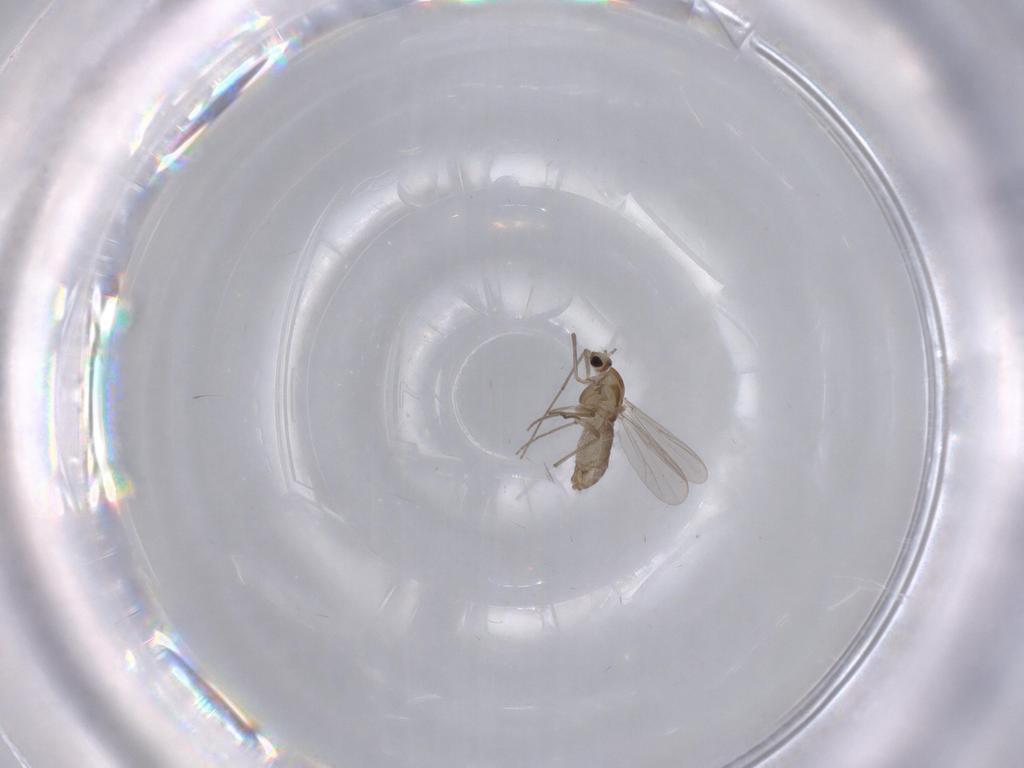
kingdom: Animalia
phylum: Arthropoda
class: Insecta
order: Diptera
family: Chironomidae
